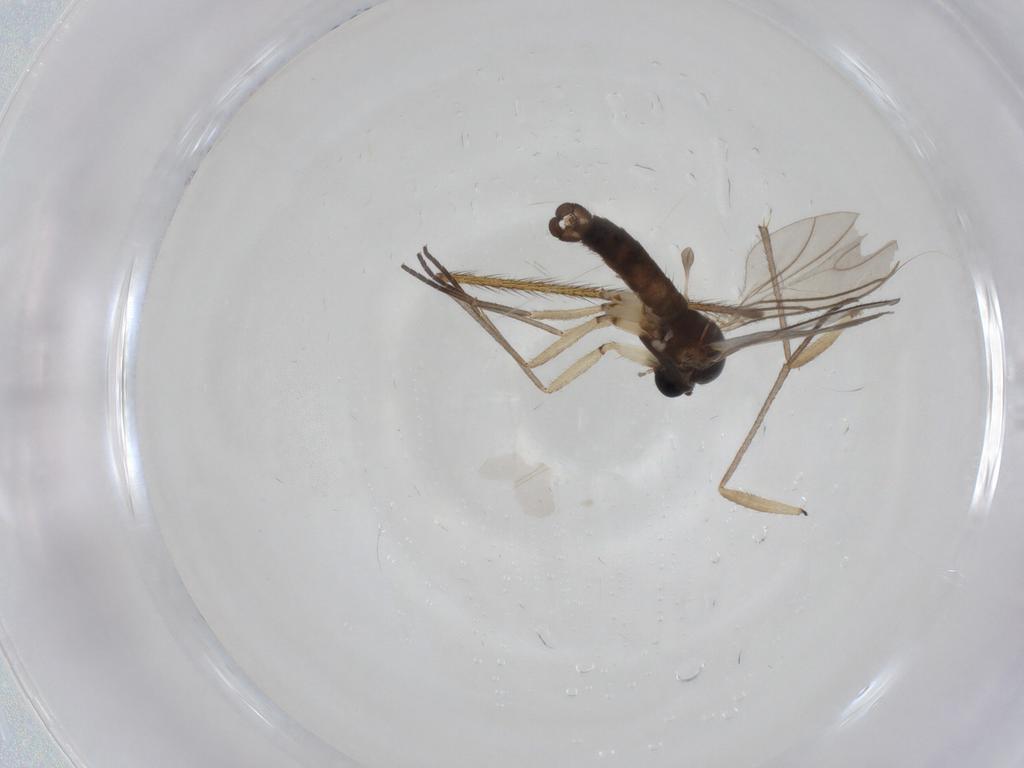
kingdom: Animalia
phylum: Arthropoda
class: Insecta
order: Diptera
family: Sciaridae
